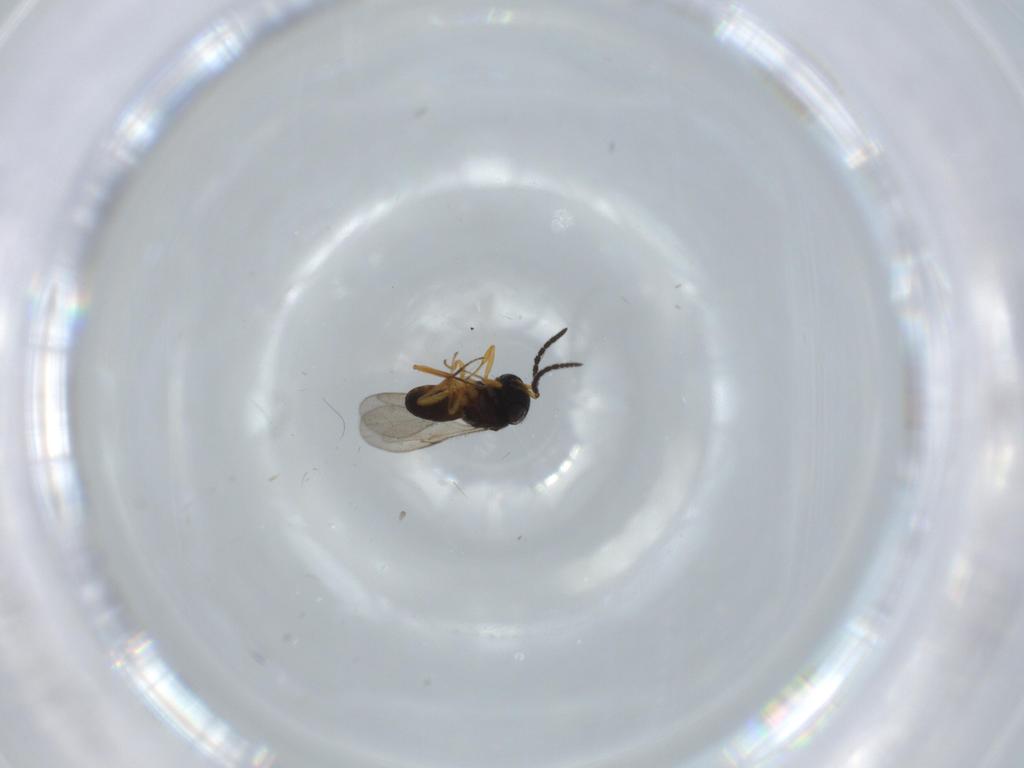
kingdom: Animalia
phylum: Arthropoda
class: Insecta
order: Hymenoptera
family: Scelionidae
